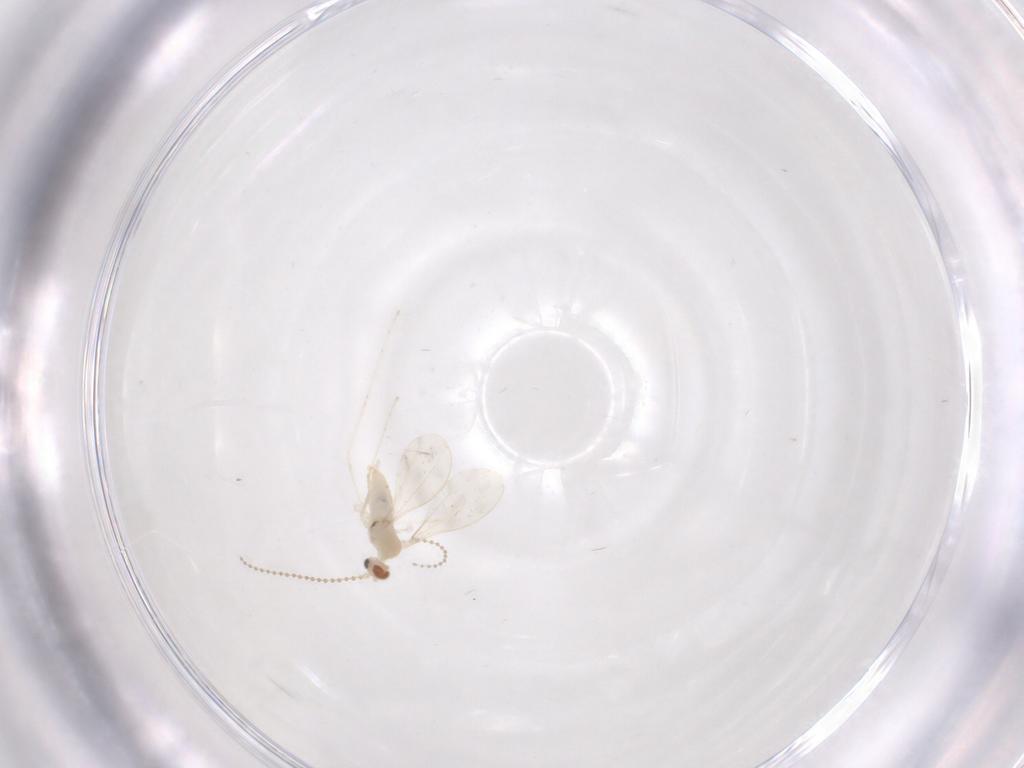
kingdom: Animalia
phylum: Arthropoda
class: Insecta
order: Diptera
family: Cecidomyiidae
